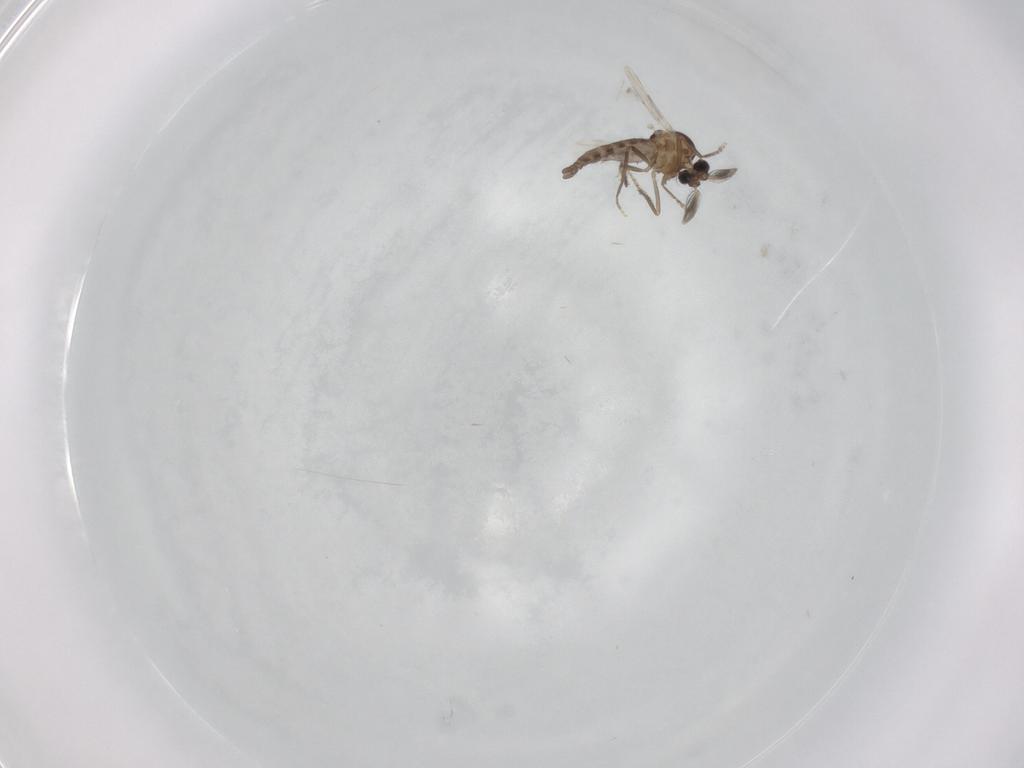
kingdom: Animalia
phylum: Arthropoda
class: Insecta
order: Diptera
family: Ceratopogonidae
